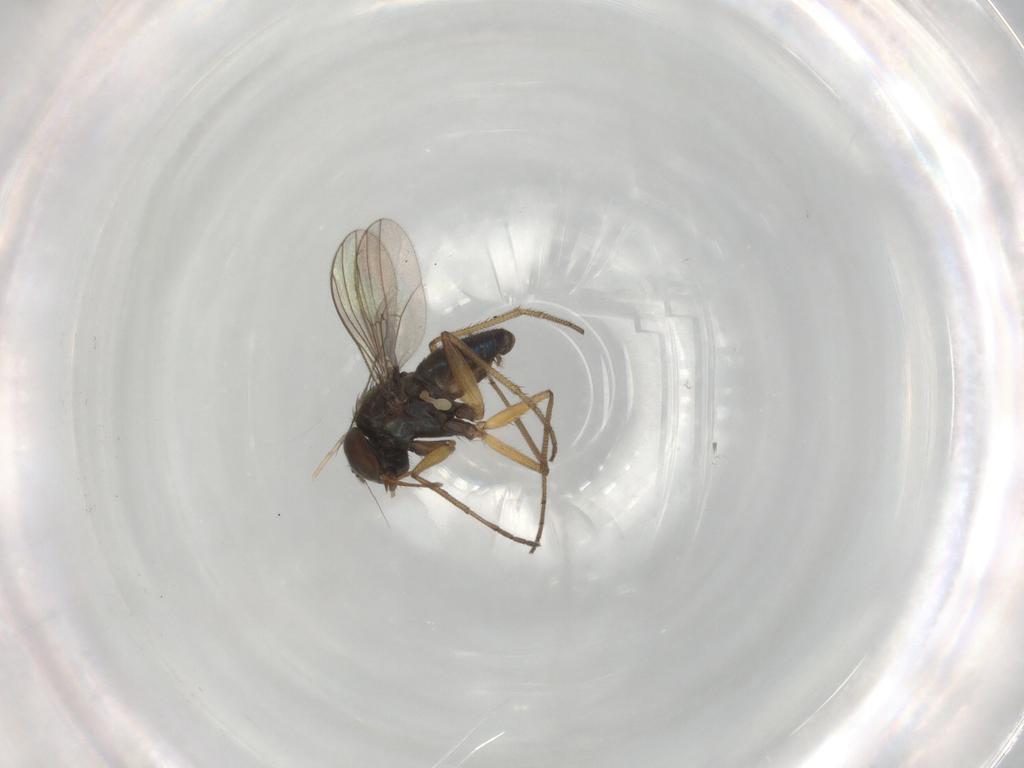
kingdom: Animalia
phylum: Arthropoda
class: Insecta
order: Diptera
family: Dolichopodidae
